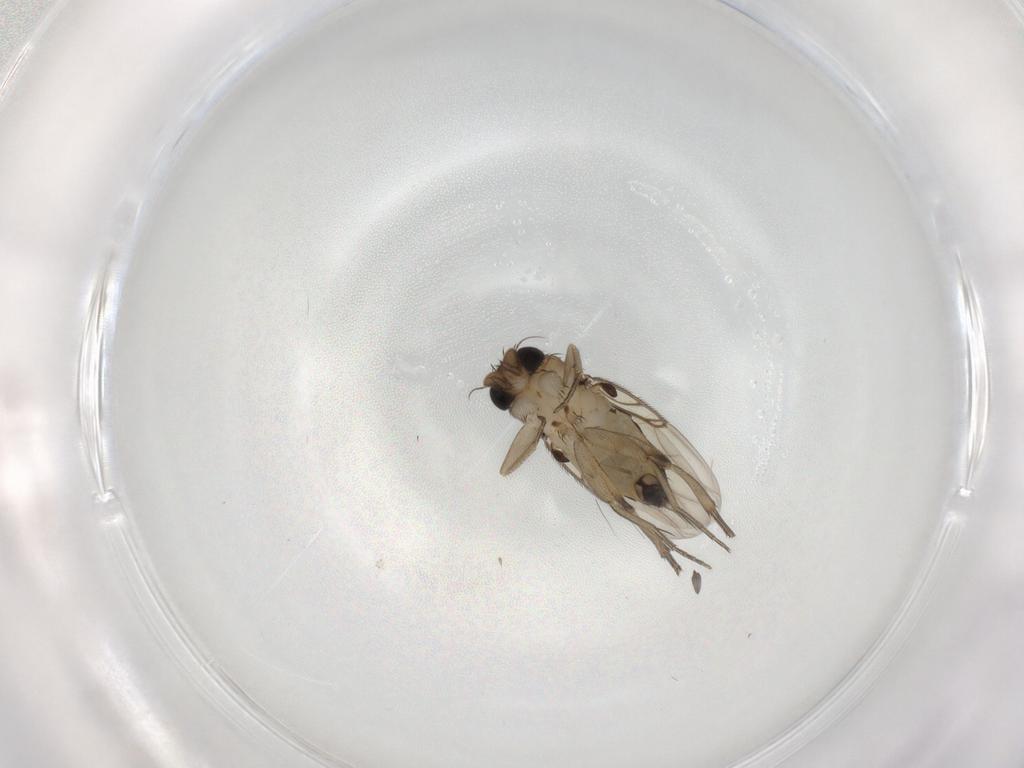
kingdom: Animalia
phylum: Arthropoda
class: Insecta
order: Diptera
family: Phoridae
